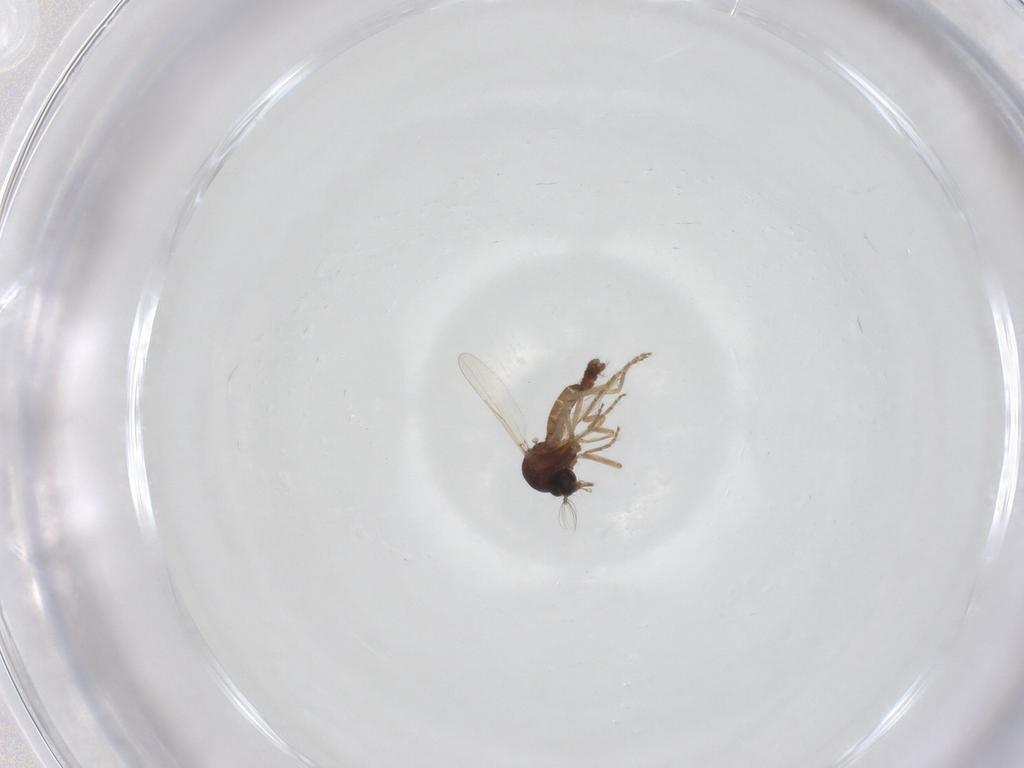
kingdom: Animalia
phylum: Arthropoda
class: Insecta
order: Diptera
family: Ceratopogonidae
